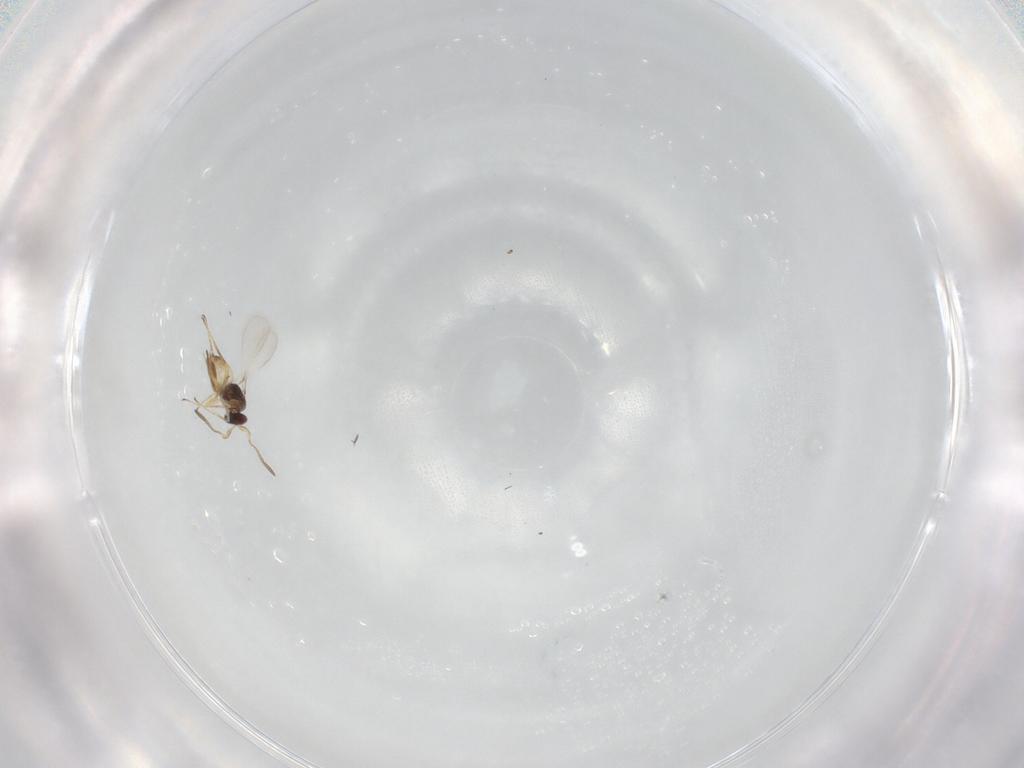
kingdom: Animalia
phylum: Arthropoda
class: Insecta
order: Hymenoptera
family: Mymaridae
